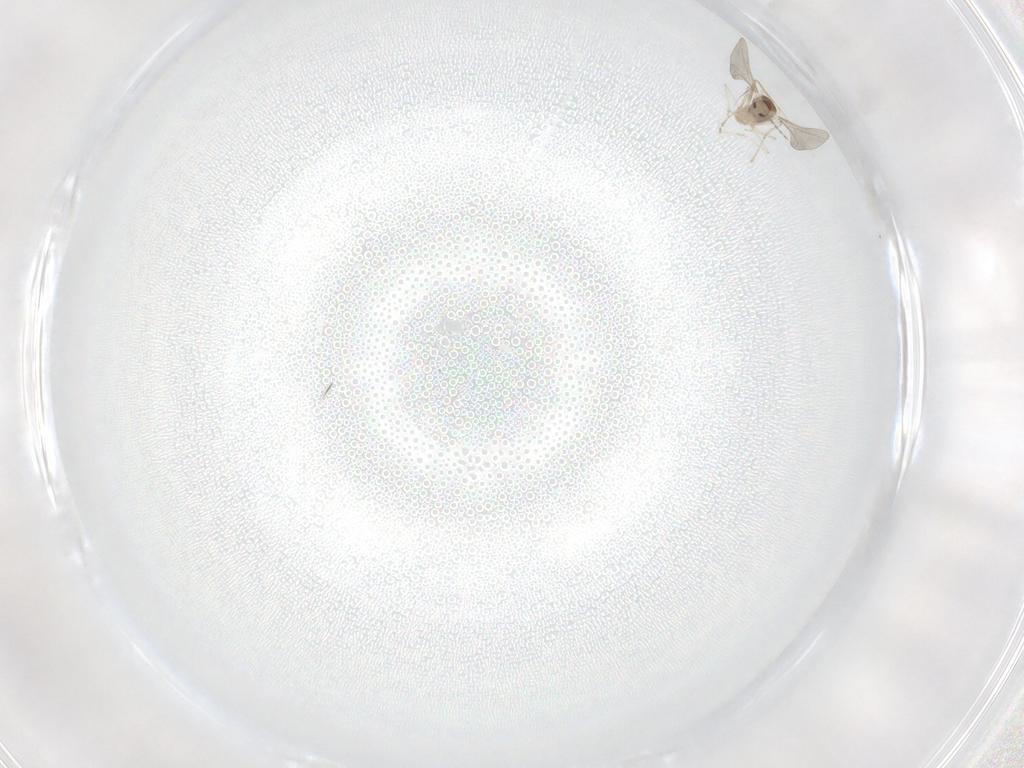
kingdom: Animalia
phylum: Arthropoda
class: Insecta
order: Diptera
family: Cecidomyiidae
